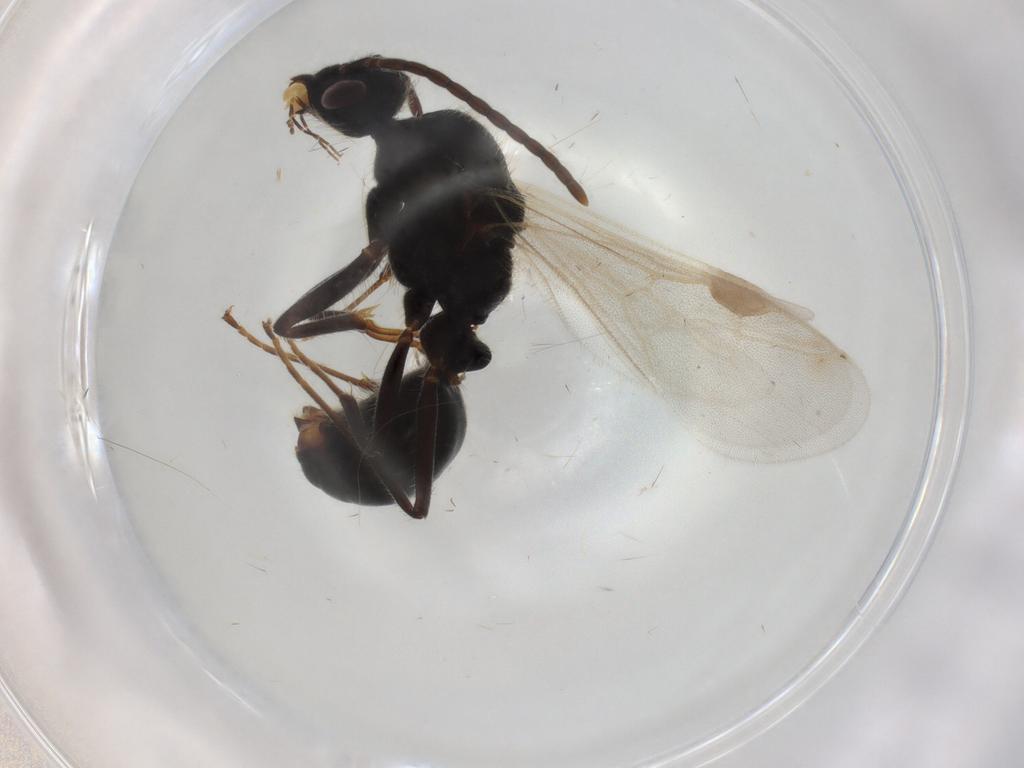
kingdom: Animalia
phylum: Arthropoda
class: Insecta
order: Hymenoptera
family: Formicidae
